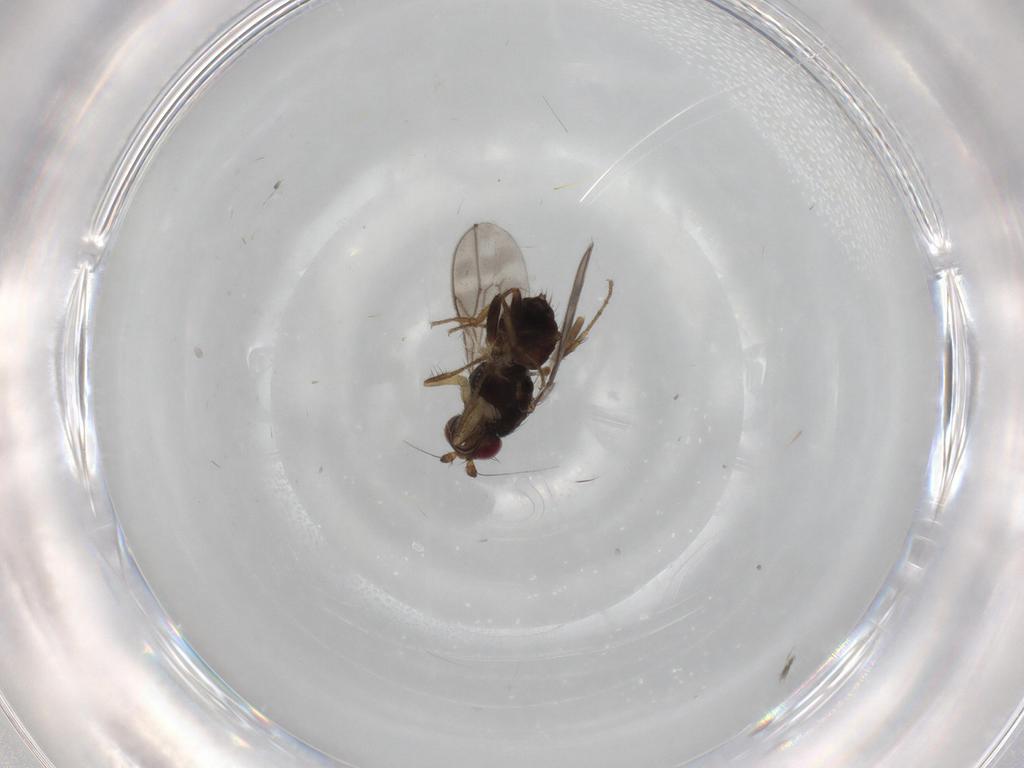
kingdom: Animalia
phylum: Arthropoda
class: Insecta
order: Diptera
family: Sphaeroceridae
